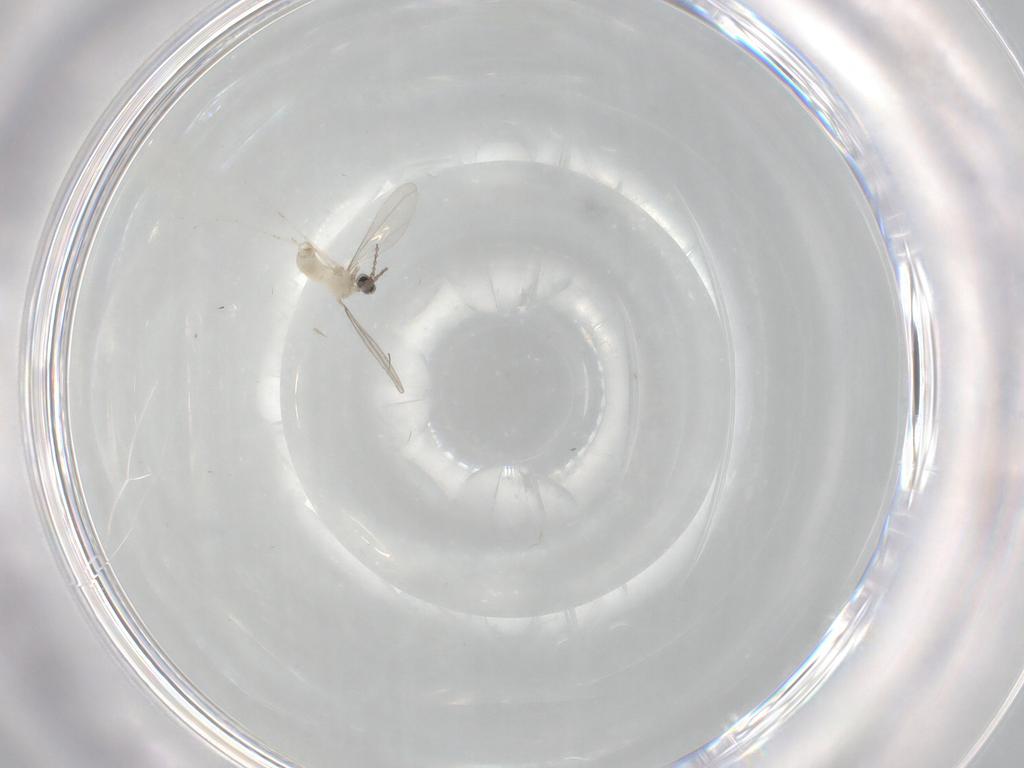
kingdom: Animalia
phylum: Arthropoda
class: Insecta
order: Diptera
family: Cecidomyiidae
